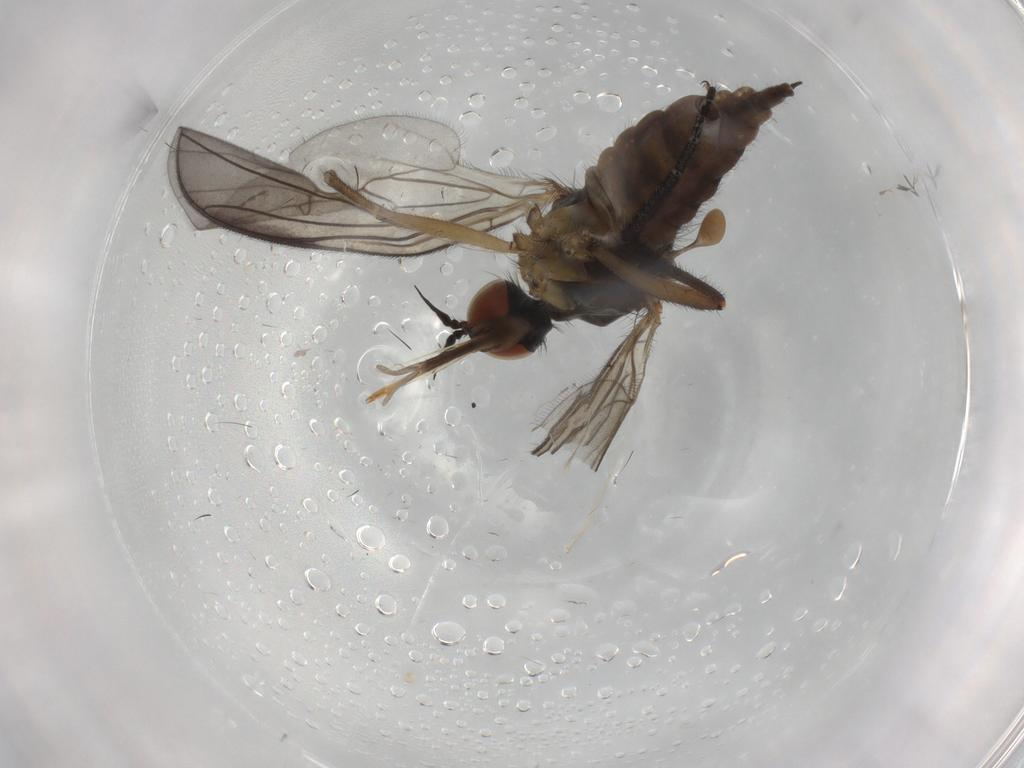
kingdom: Animalia
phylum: Arthropoda
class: Insecta
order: Diptera
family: Empididae
